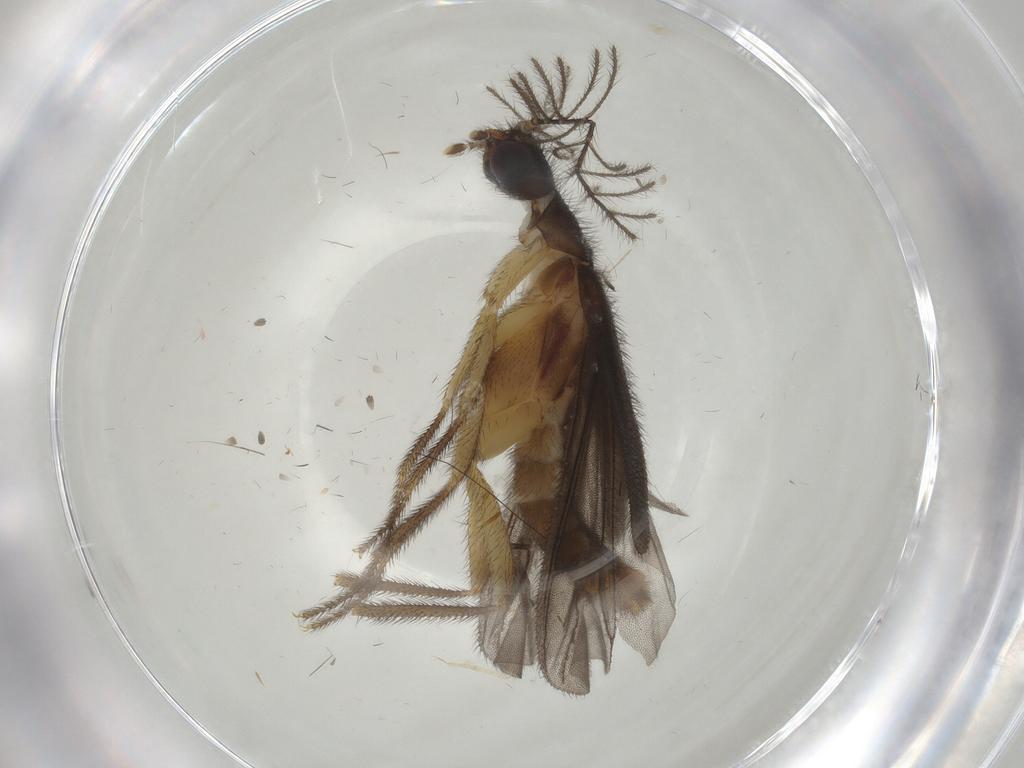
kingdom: Animalia
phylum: Arthropoda
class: Insecta
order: Coleoptera
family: Phengodidae
